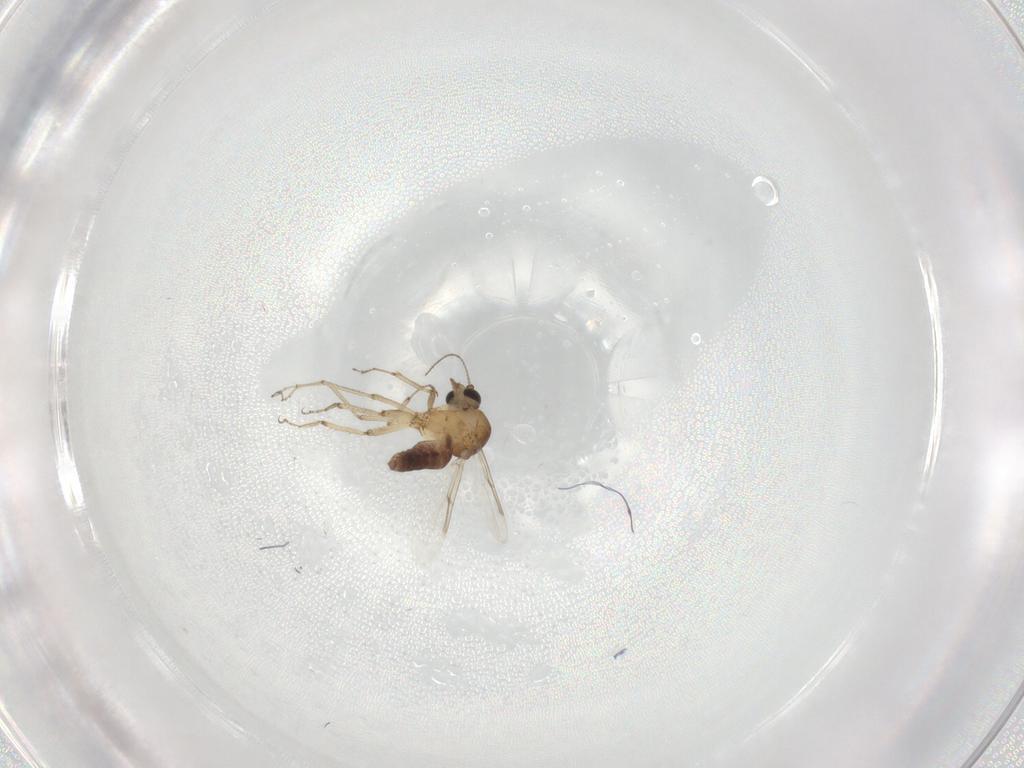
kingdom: Animalia
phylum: Arthropoda
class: Insecta
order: Diptera
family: Ceratopogonidae
